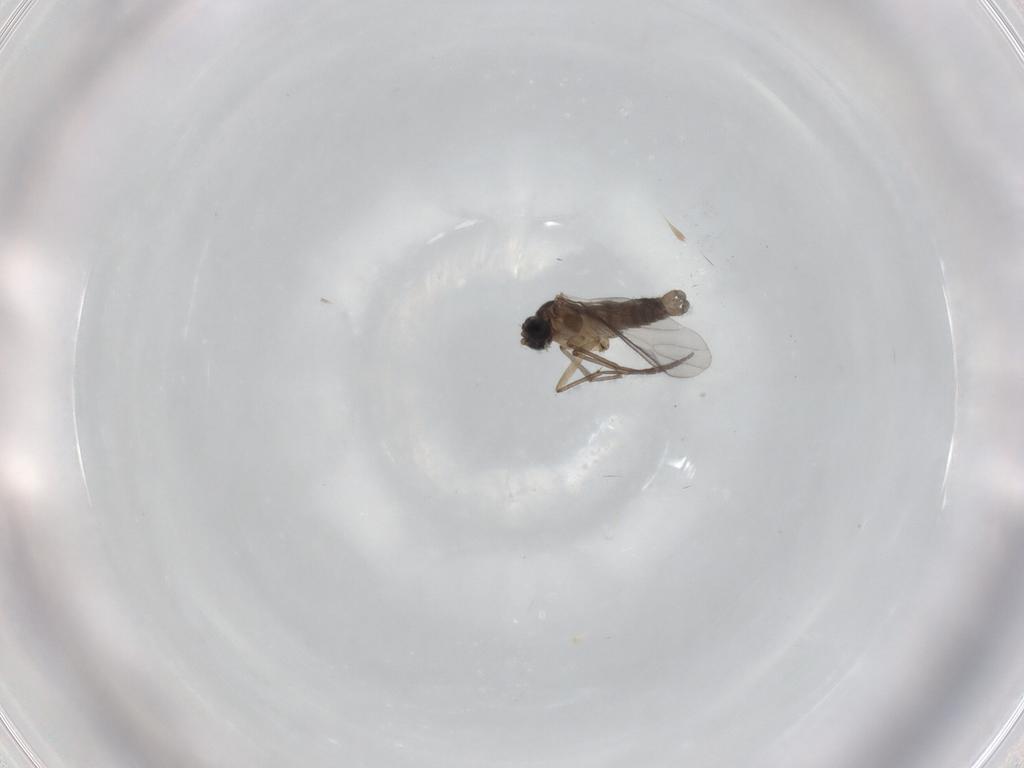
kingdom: Animalia
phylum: Arthropoda
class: Insecta
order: Diptera
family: Sciaridae
